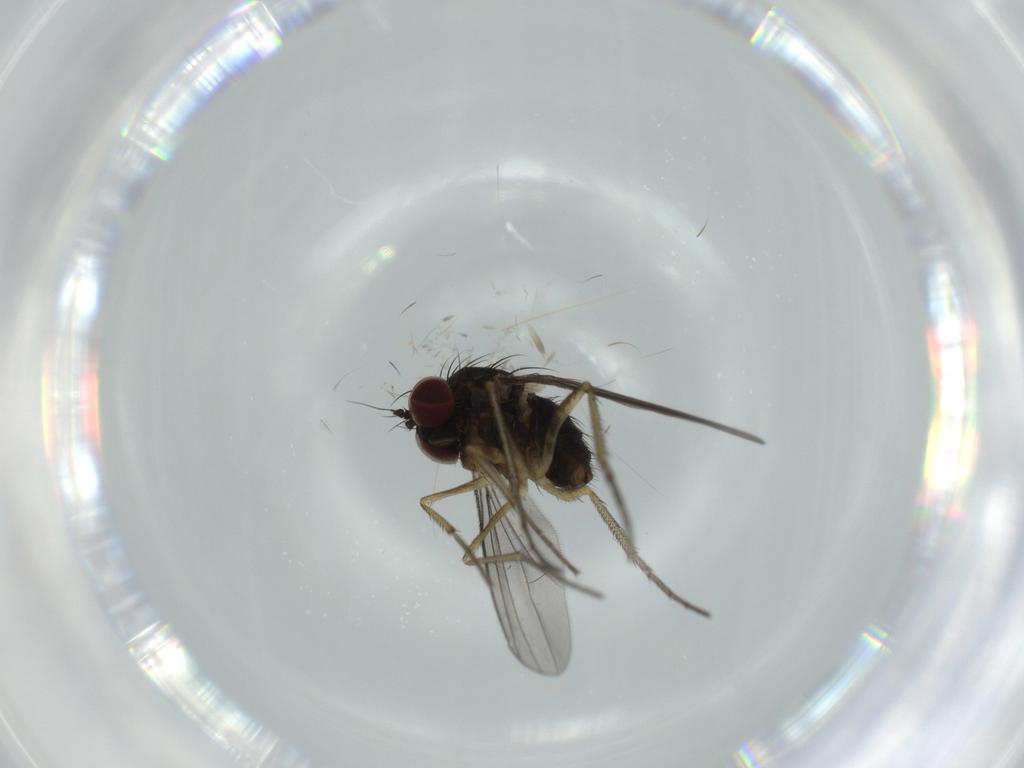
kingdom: Animalia
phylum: Arthropoda
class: Insecta
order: Diptera
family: Dolichopodidae
